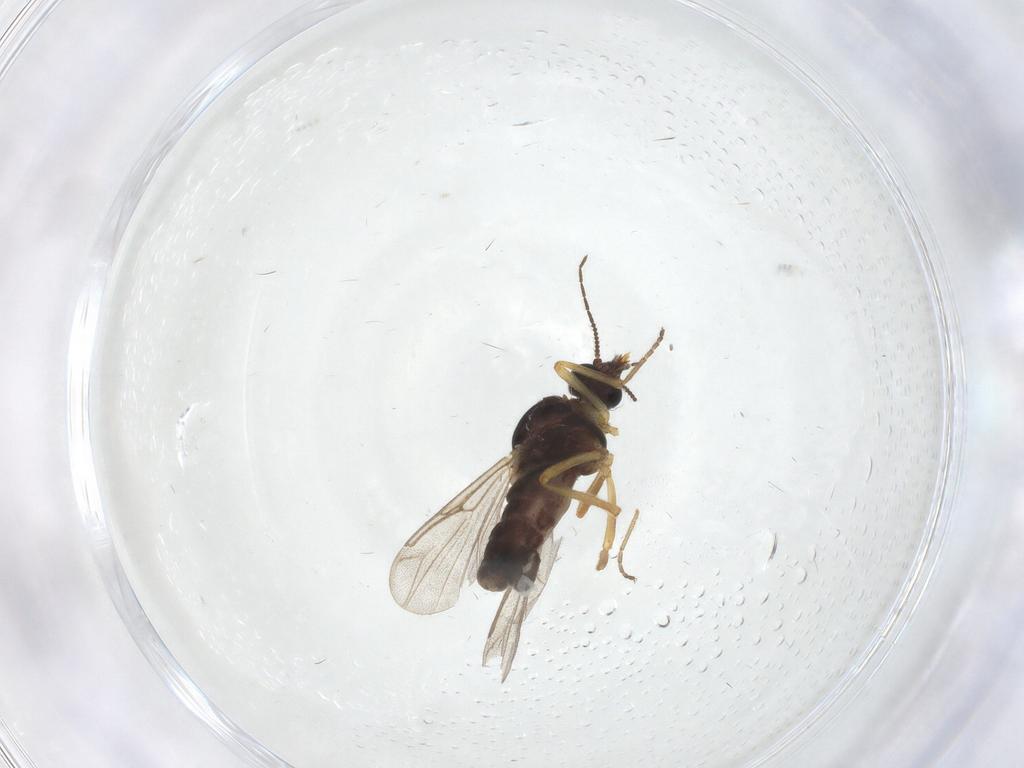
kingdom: Animalia
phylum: Arthropoda
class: Insecta
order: Diptera
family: Ceratopogonidae
